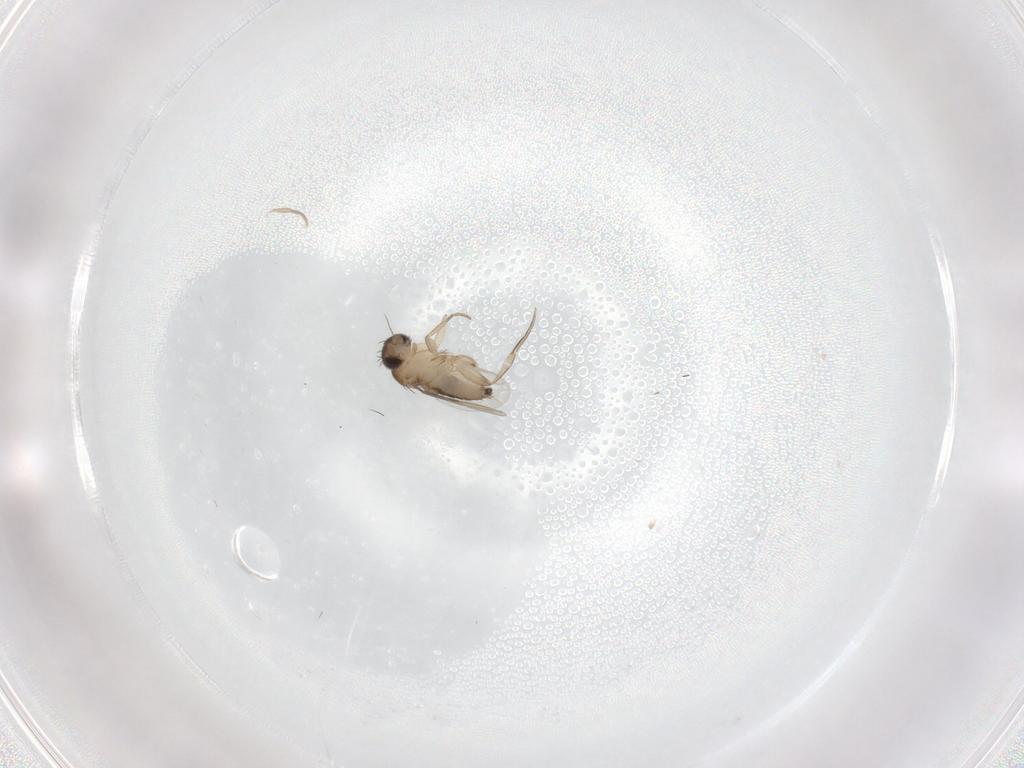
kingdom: Animalia
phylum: Arthropoda
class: Insecta
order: Diptera
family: Phoridae
